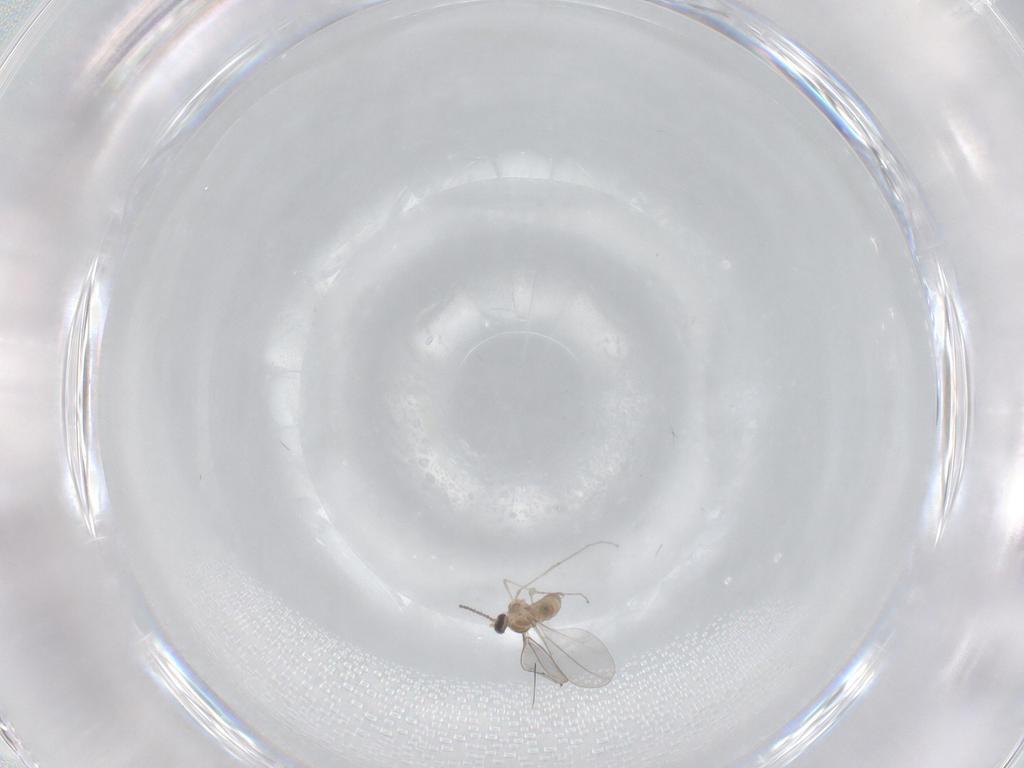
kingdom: Animalia
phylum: Arthropoda
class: Insecta
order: Diptera
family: Cecidomyiidae
